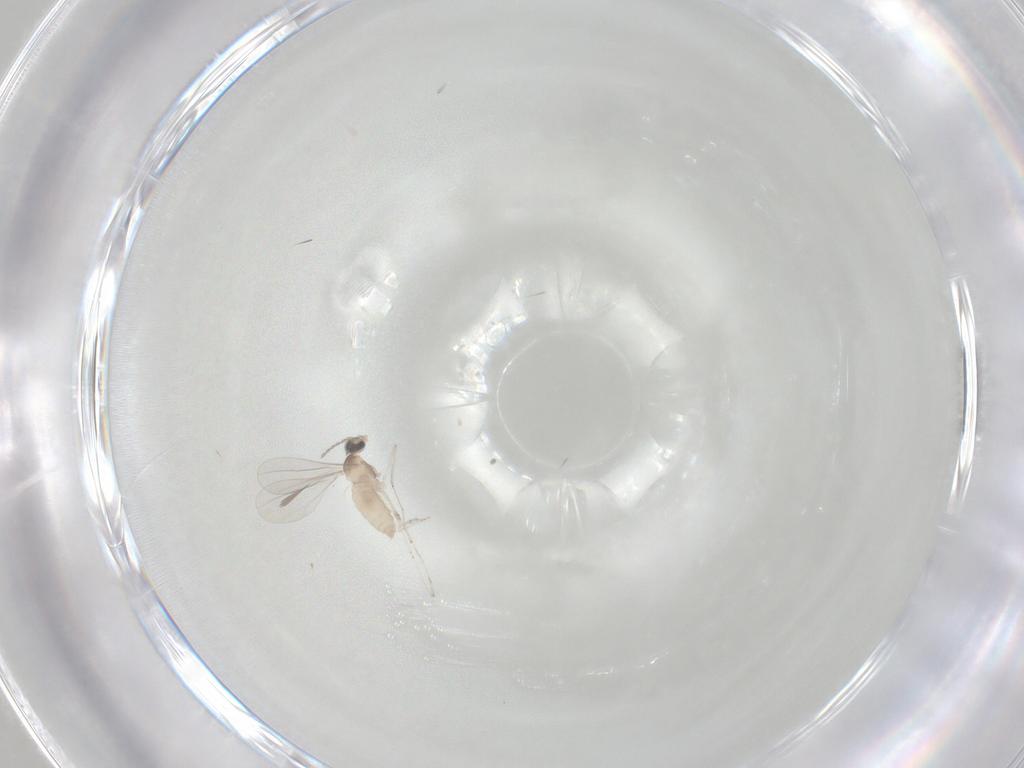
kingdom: Animalia
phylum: Arthropoda
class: Insecta
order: Diptera
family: Cecidomyiidae
